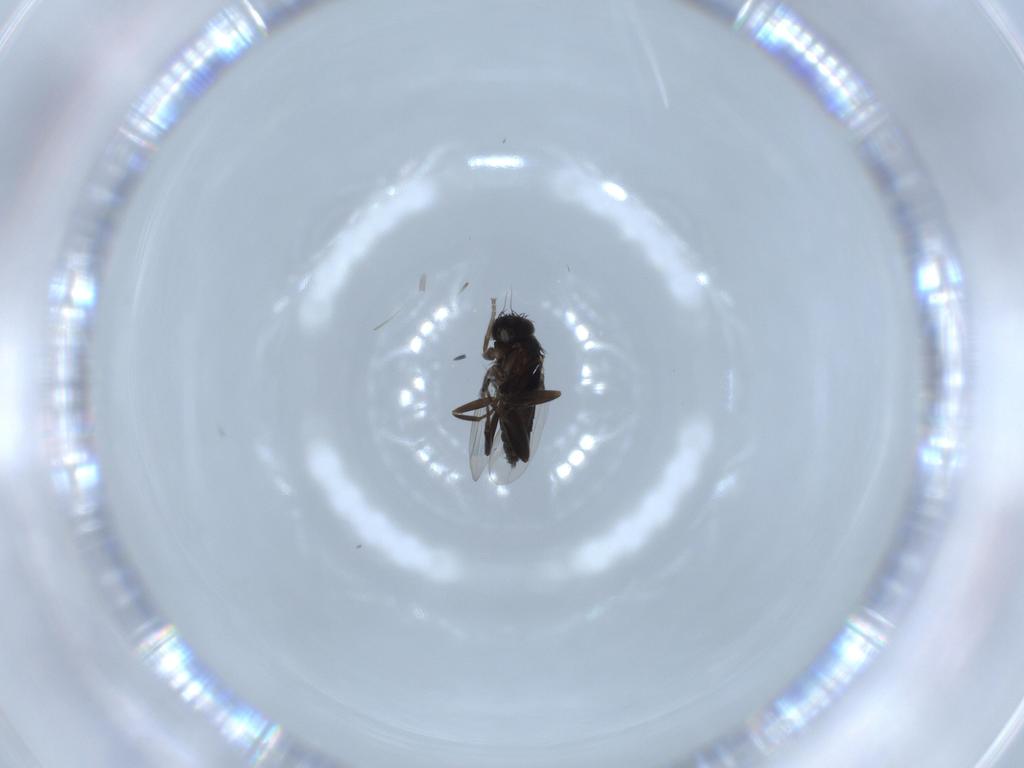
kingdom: Animalia
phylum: Arthropoda
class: Insecta
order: Diptera
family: Phoridae
